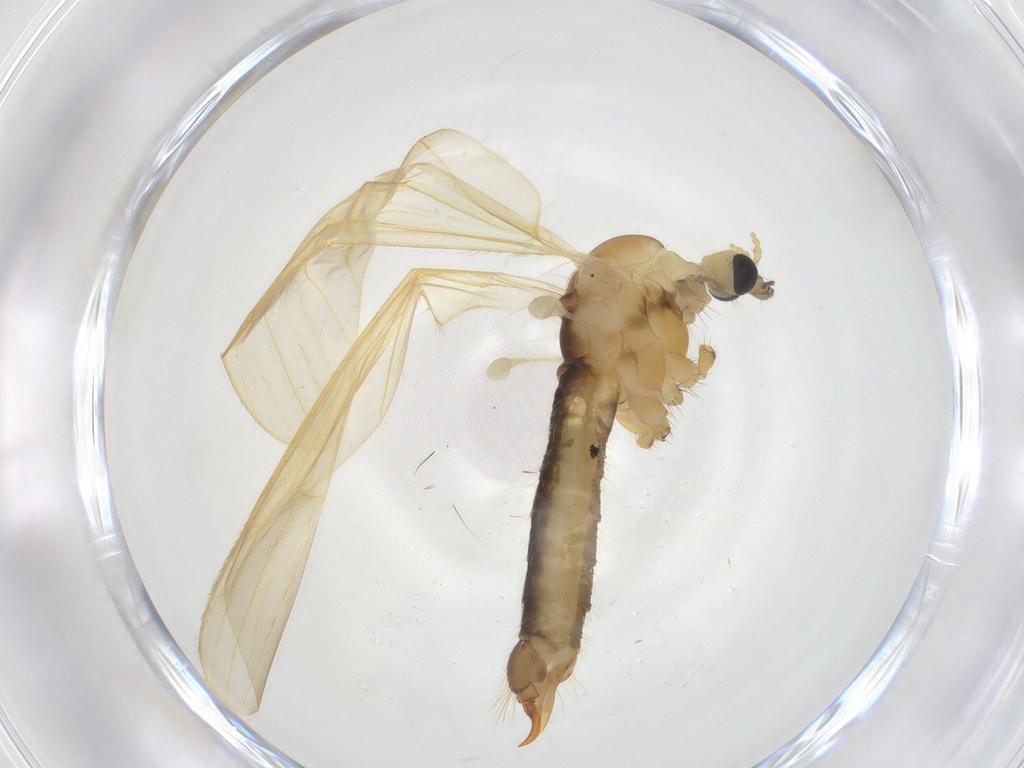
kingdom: Animalia
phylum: Arthropoda
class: Insecta
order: Diptera
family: Limoniidae
